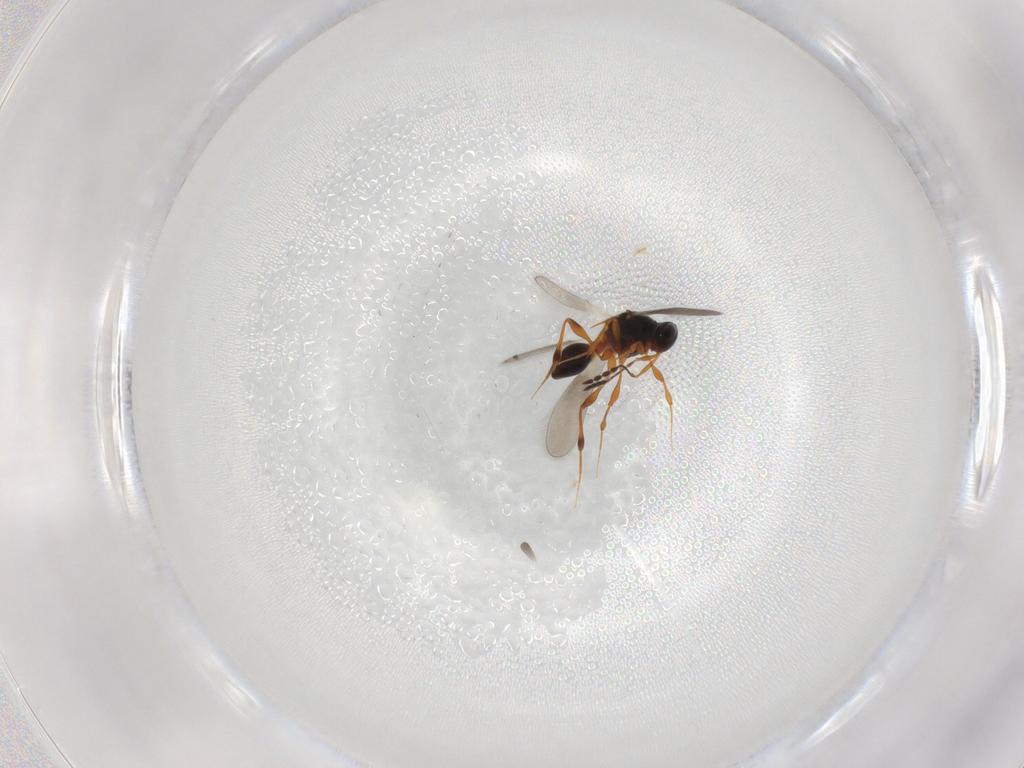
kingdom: Animalia
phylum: Arthropoda
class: Insecta
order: Hymenoptera
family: Platygastridae
